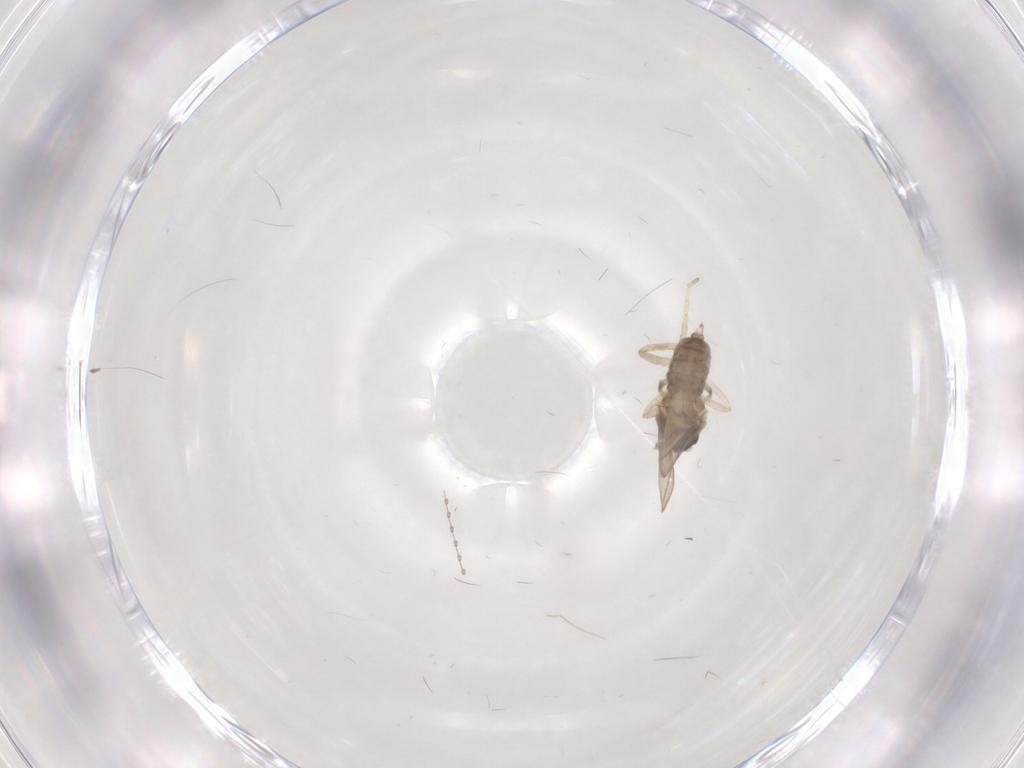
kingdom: Animalia
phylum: Arthropoda
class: Insecta
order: Diptera
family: Cecidomyiidae
